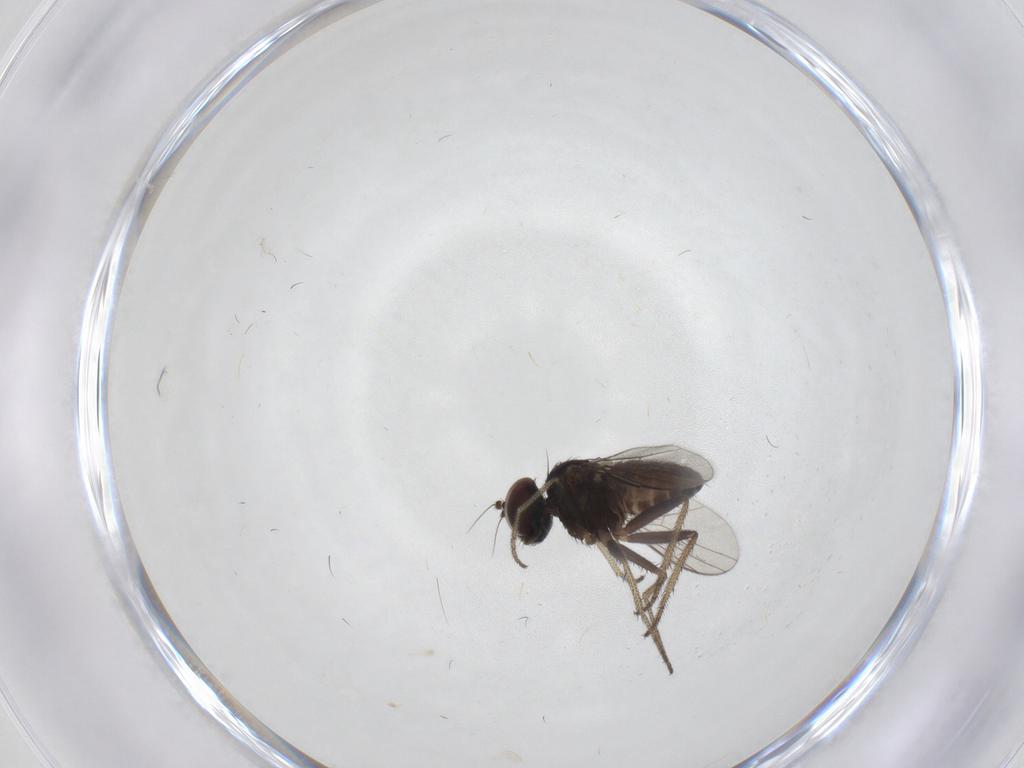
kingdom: Animalia
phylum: Arthropoda
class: Insecta
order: Diptera
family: Chironomidae
